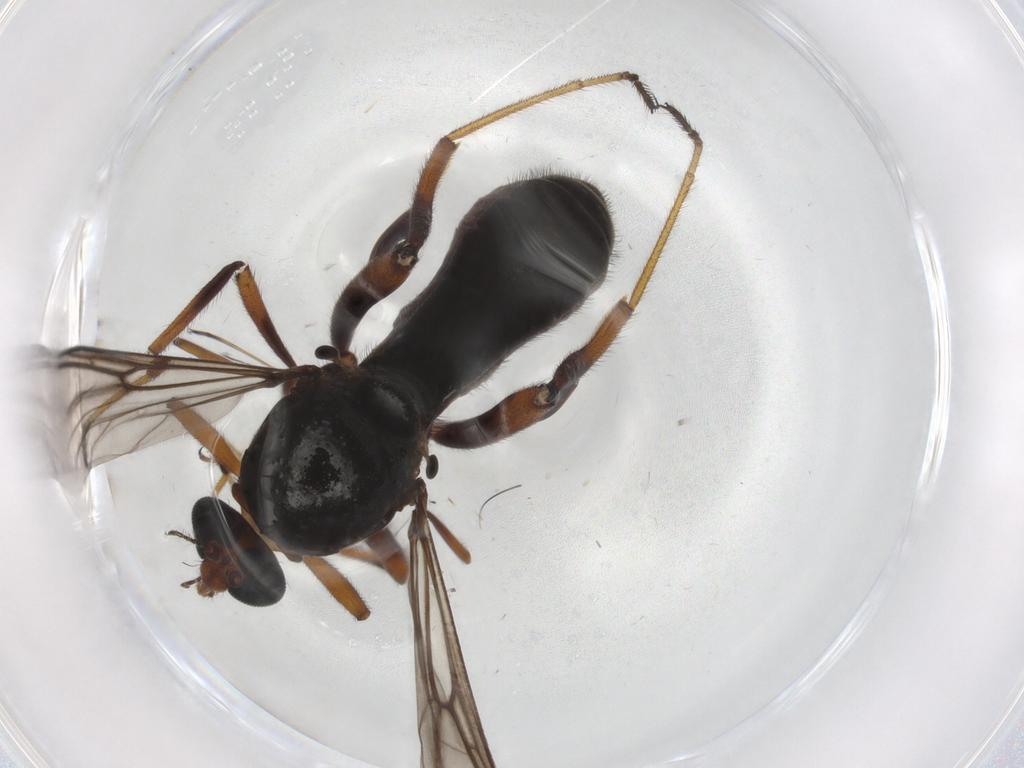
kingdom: Animalia
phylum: Arthropoda
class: Insecta
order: Diptera
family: Ceratopogonidae
